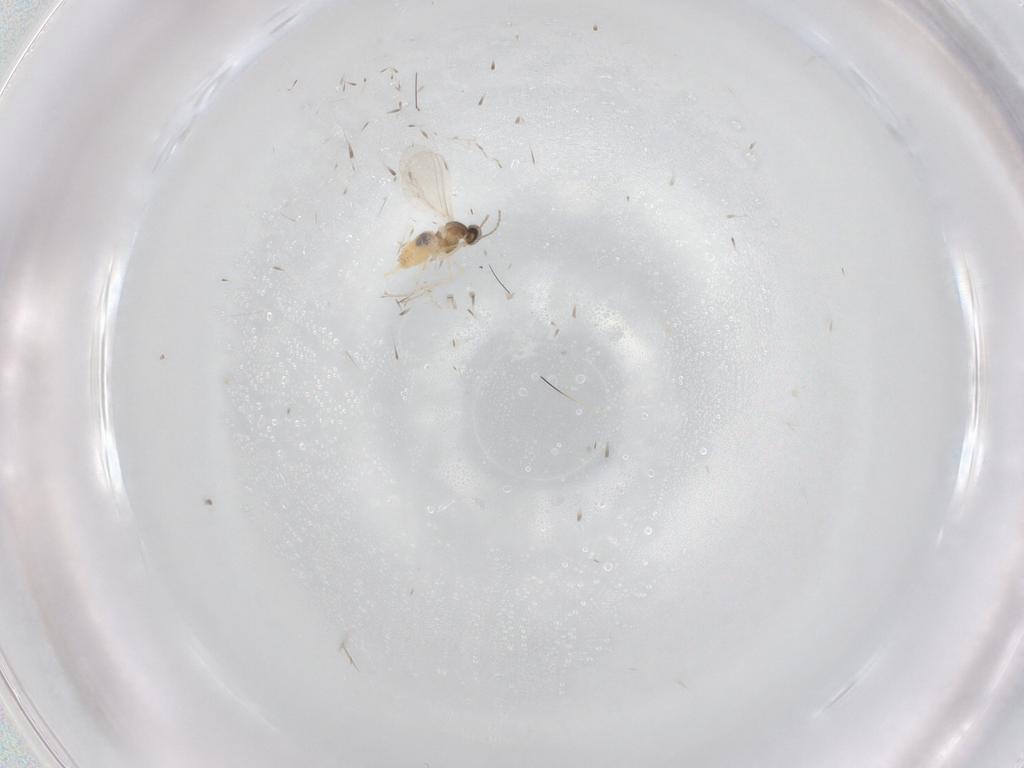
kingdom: Animalia
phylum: Arthropoda
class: Insecta
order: Diptera
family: Cecidomyiidae
